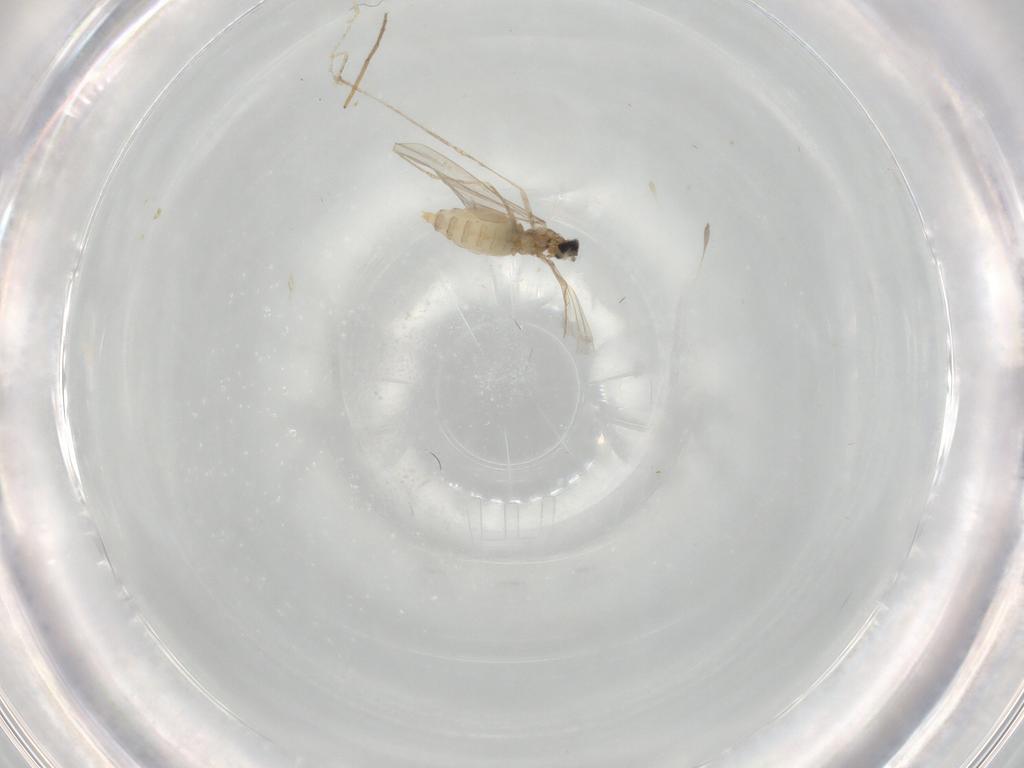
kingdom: Animalia
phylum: Arthropoda
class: Insecta
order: Diptera
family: Cecidomyiidae
